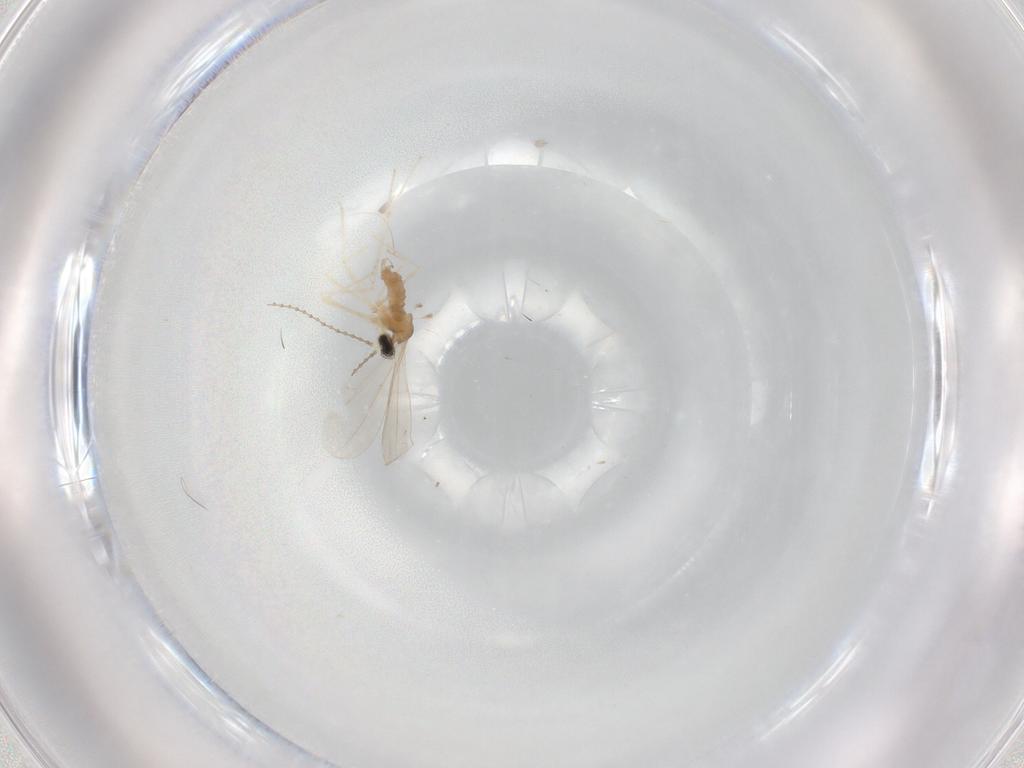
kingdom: Animalia
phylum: Arthropoda
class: Insecta
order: Diptera
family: Cecidomyiidae
